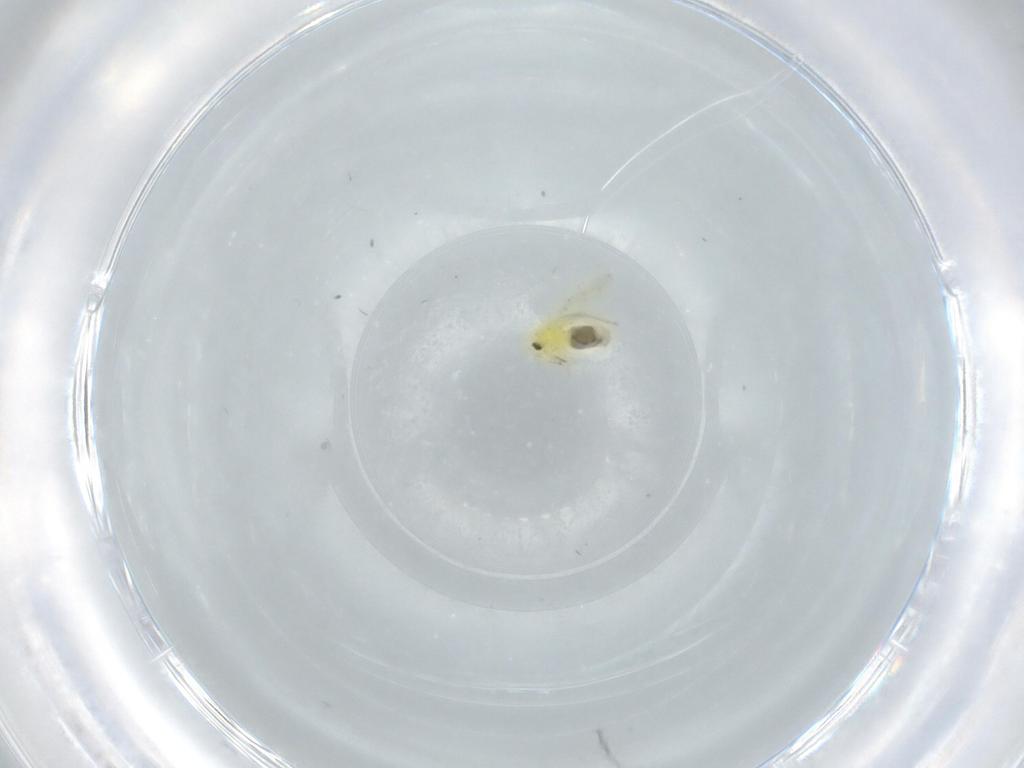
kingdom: Animalia
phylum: Arthropoda
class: Insecta
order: Hemiptera
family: Cicadellidae
